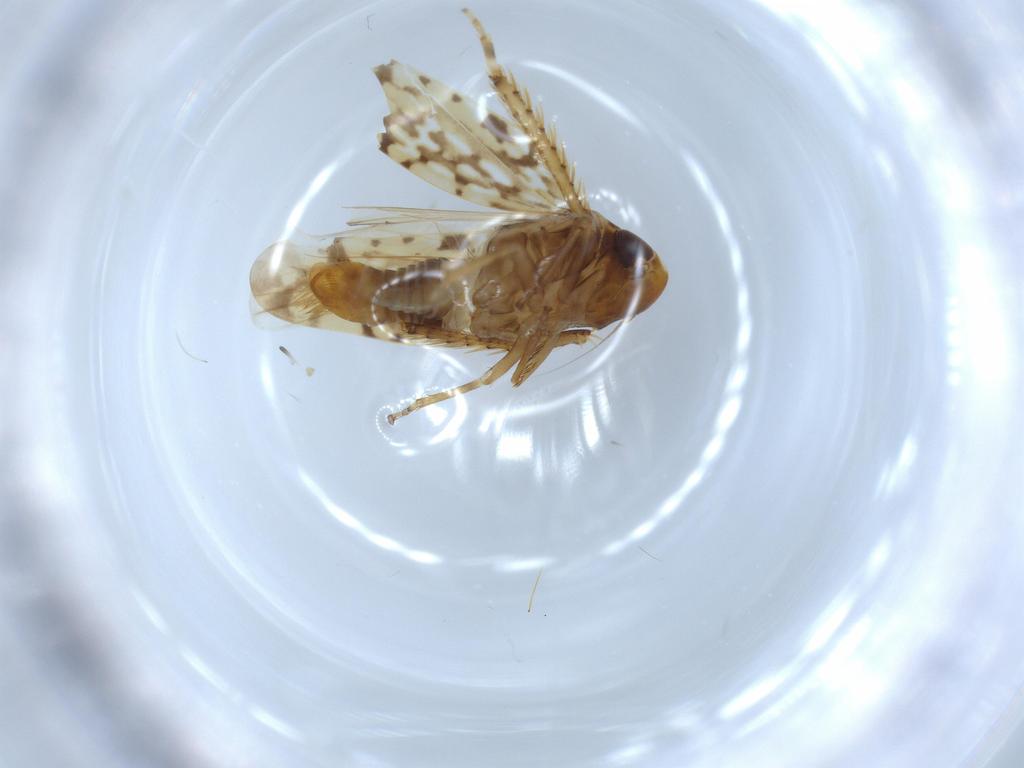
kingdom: Animalia
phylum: Arthropoda
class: Insecta
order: Hemiptera
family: Cicadellidae
